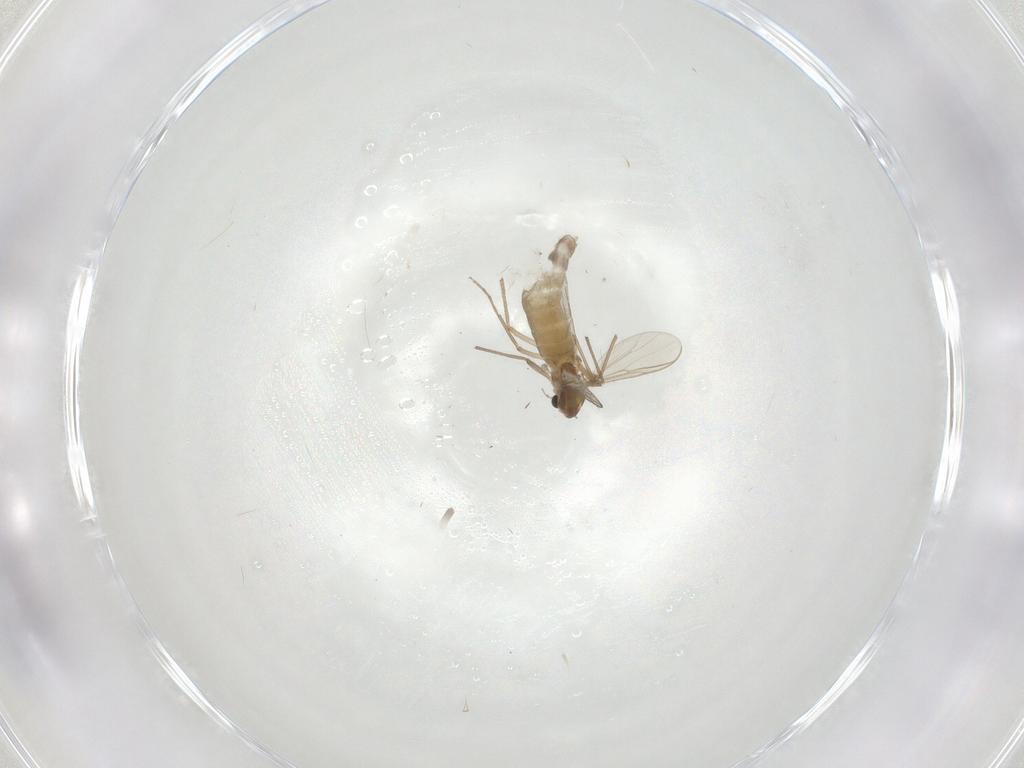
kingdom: Animalia
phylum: Arthropoda
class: Insecta
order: Diptera
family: Chironomidae
